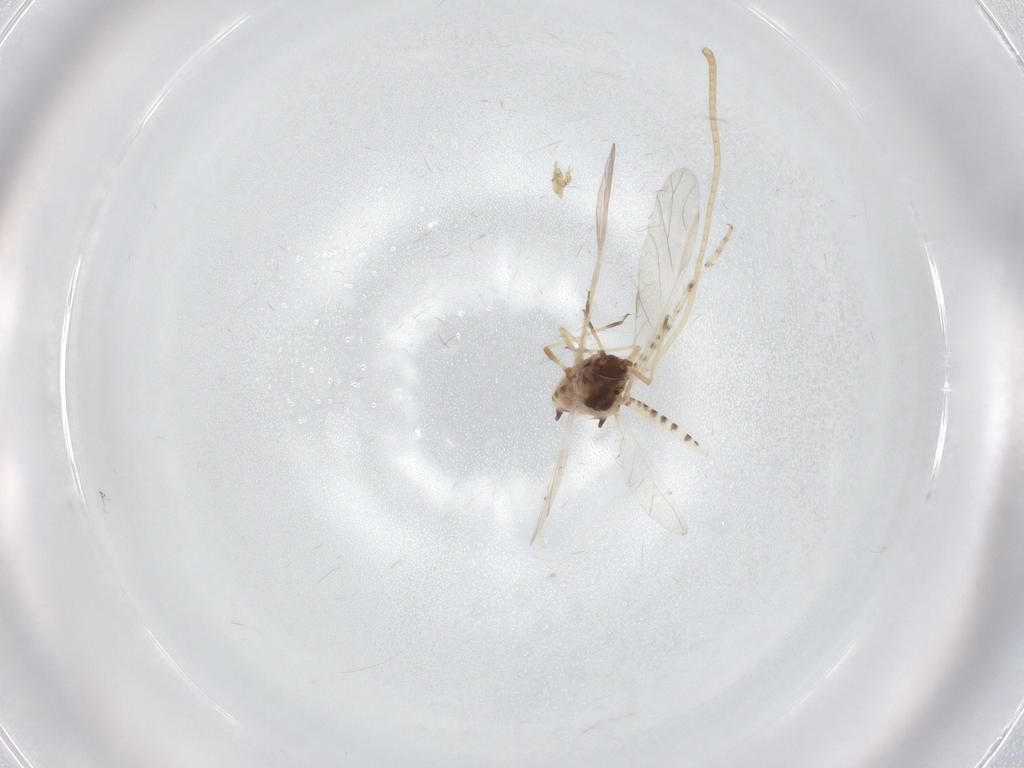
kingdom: Animalia
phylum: Arthropoda
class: Insecta
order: Hemiptera
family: Aphididae
